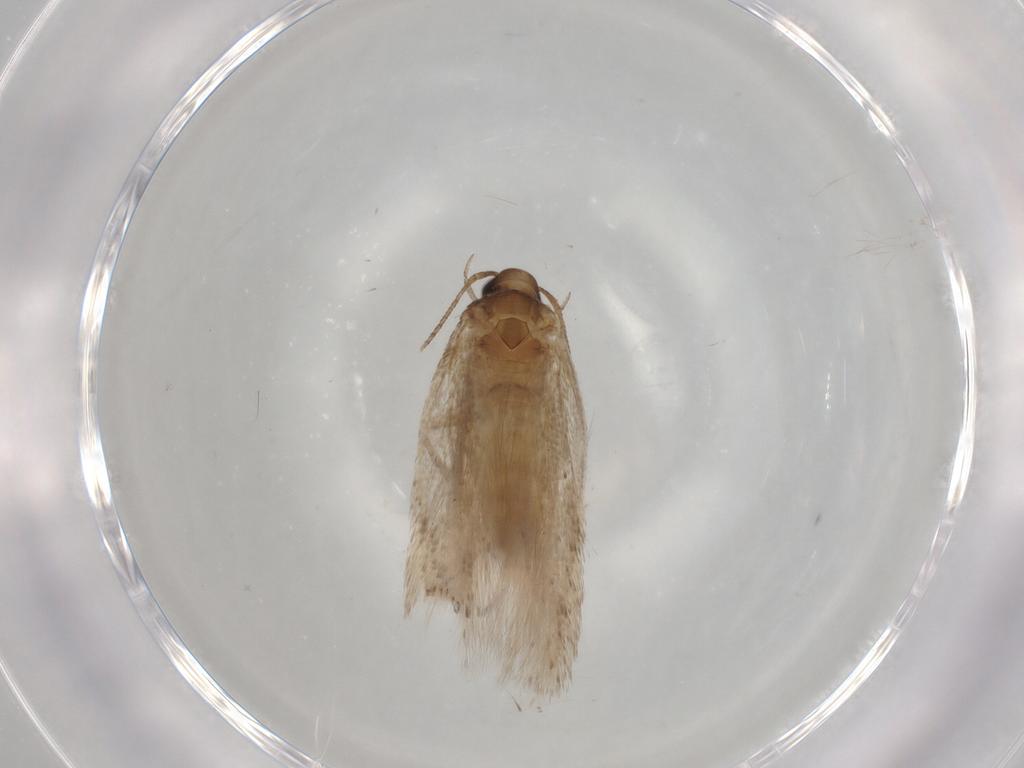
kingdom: Animalia
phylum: Arthropoda
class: Insecta
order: Lepidoptera
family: Gelechiidae
